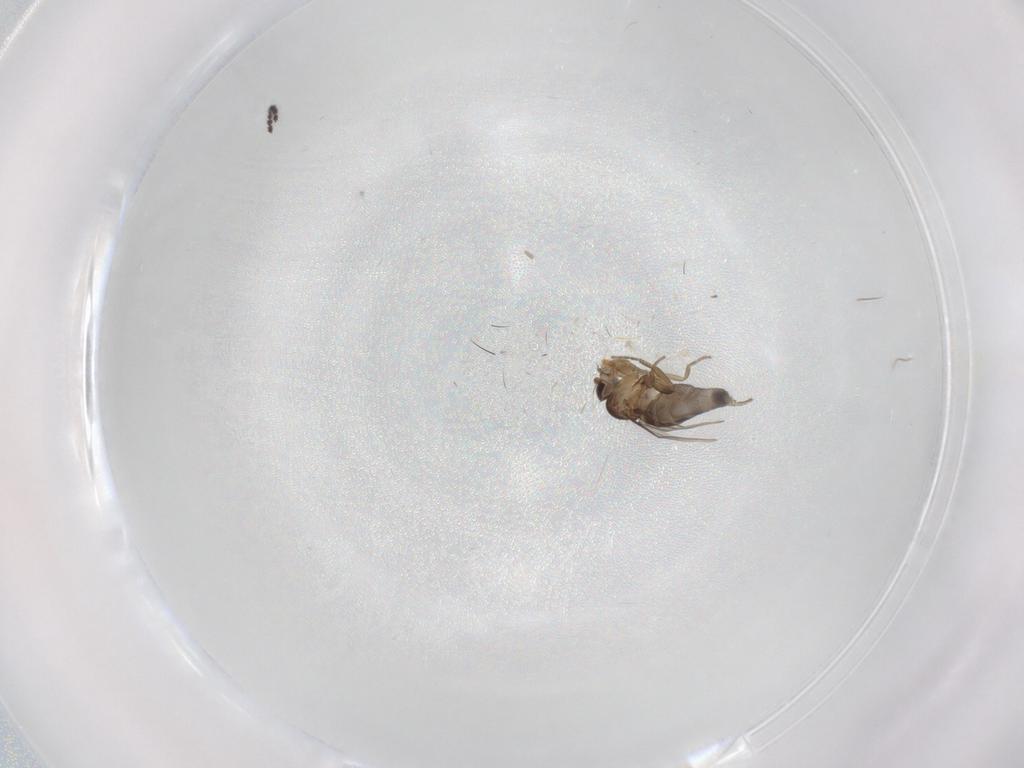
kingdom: Animalia
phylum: Arthropoda
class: Insecta
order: Diptera
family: Phoridae
